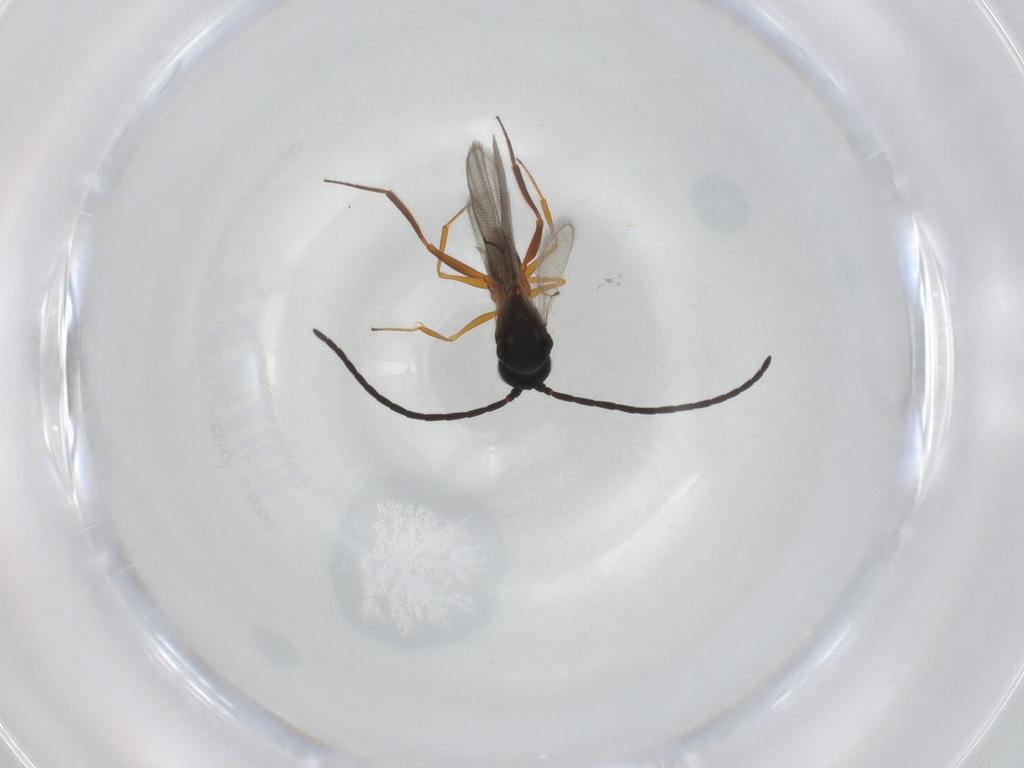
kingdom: Animalia
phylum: Arthropoda
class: Insecta
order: Hymenoptera
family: Figitidae
